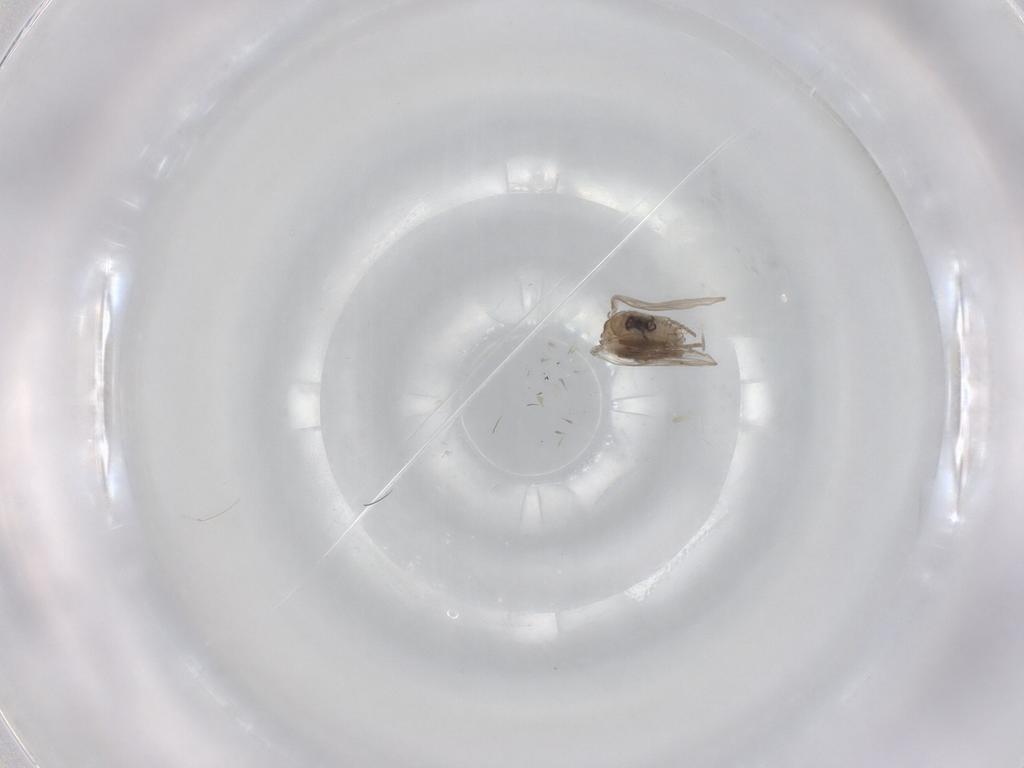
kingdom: Animalia
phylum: Arthropoda
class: Insecta
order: Diptera
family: Psychodidae
